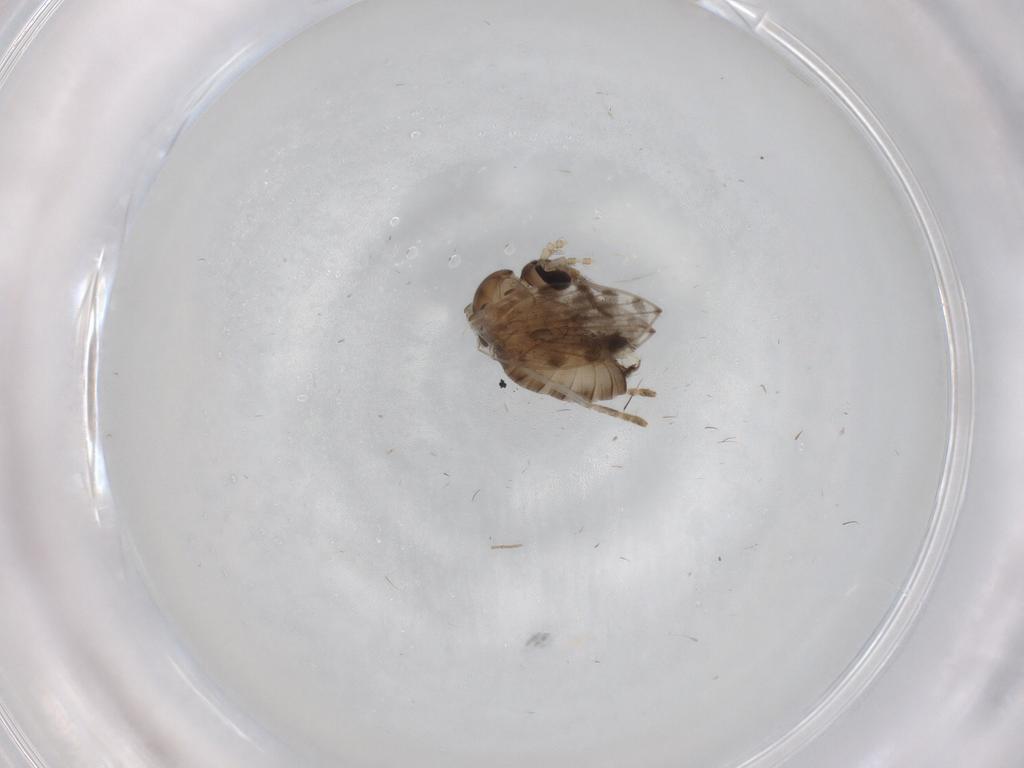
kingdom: Animalia
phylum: Arthropoda
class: Insecta
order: Diptera
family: Psychodidae
